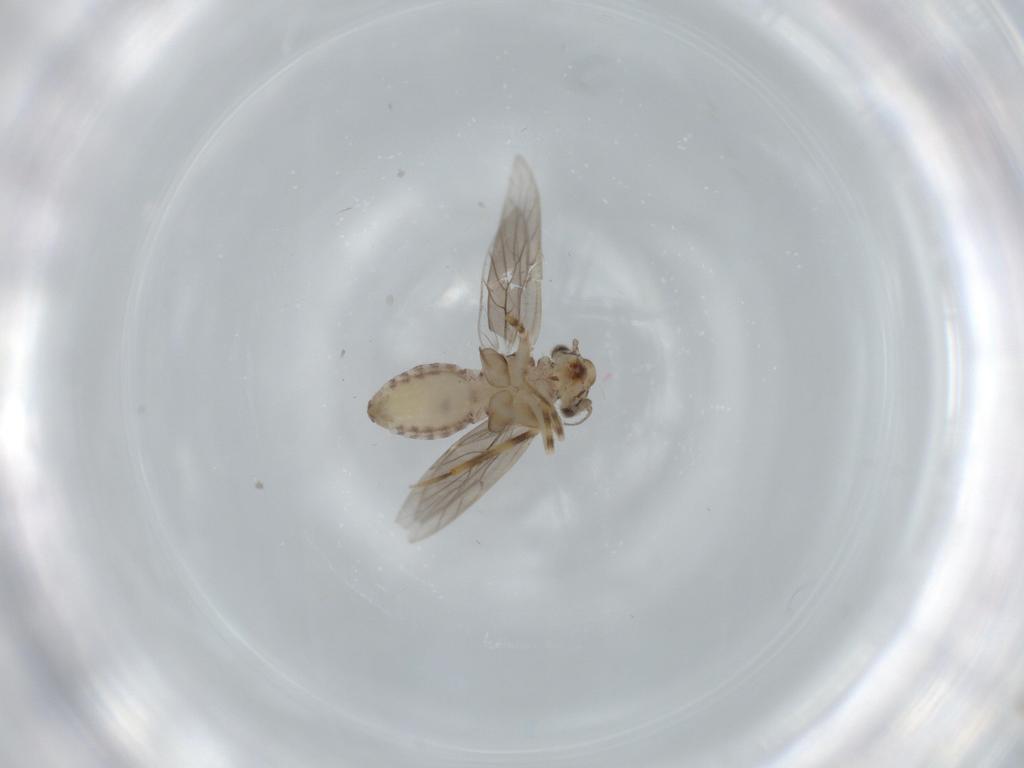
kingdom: Animalia
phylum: Arthropoda
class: Insecta
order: Psocodea
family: Lepidopsocidae
